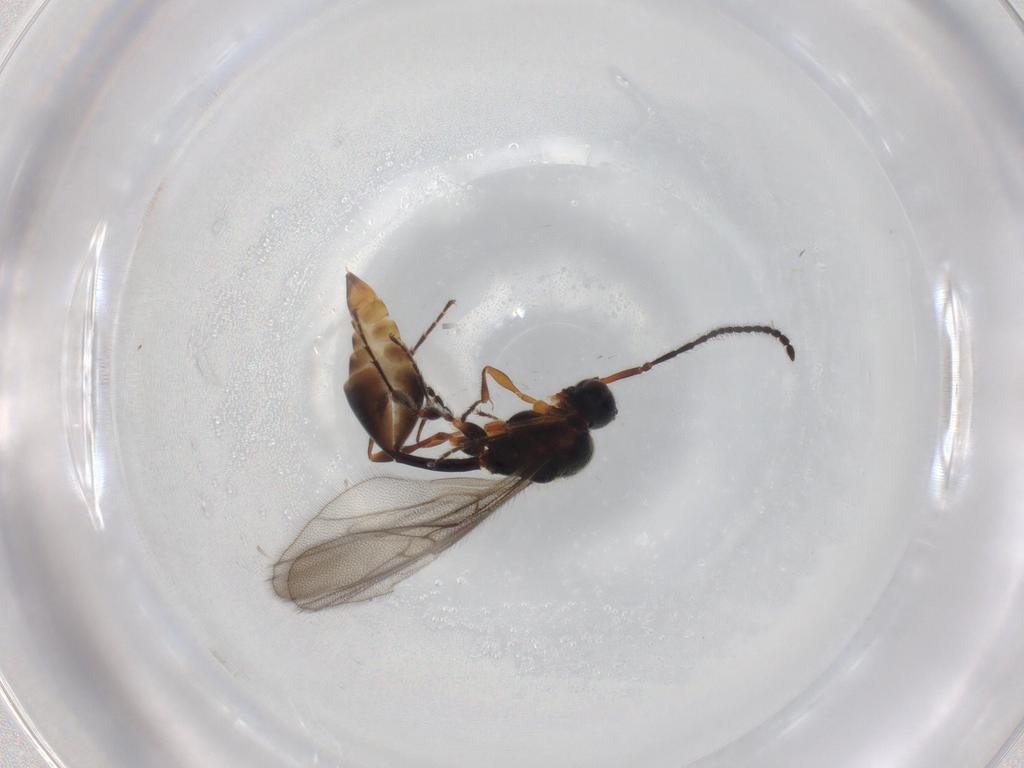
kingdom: Animalia
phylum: Arthropoda
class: Insecta
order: Hymenoptera
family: Diapriidae
